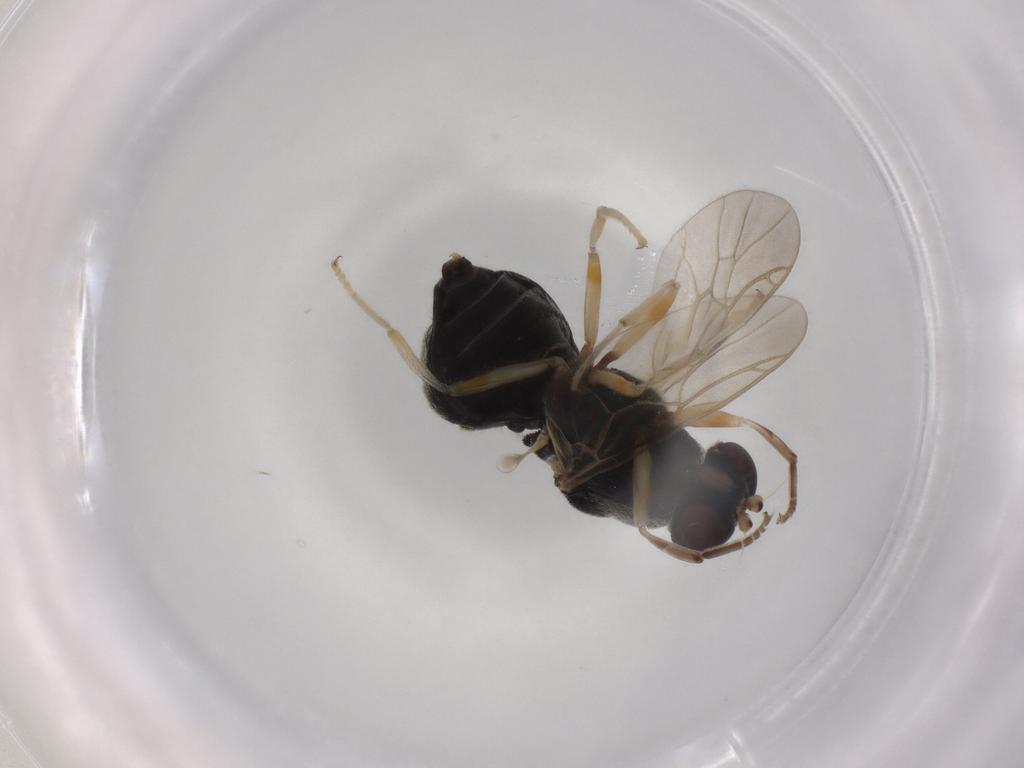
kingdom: Animalia
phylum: Arthropoda
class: Insecta
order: Diptera
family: Stratiomyidae
